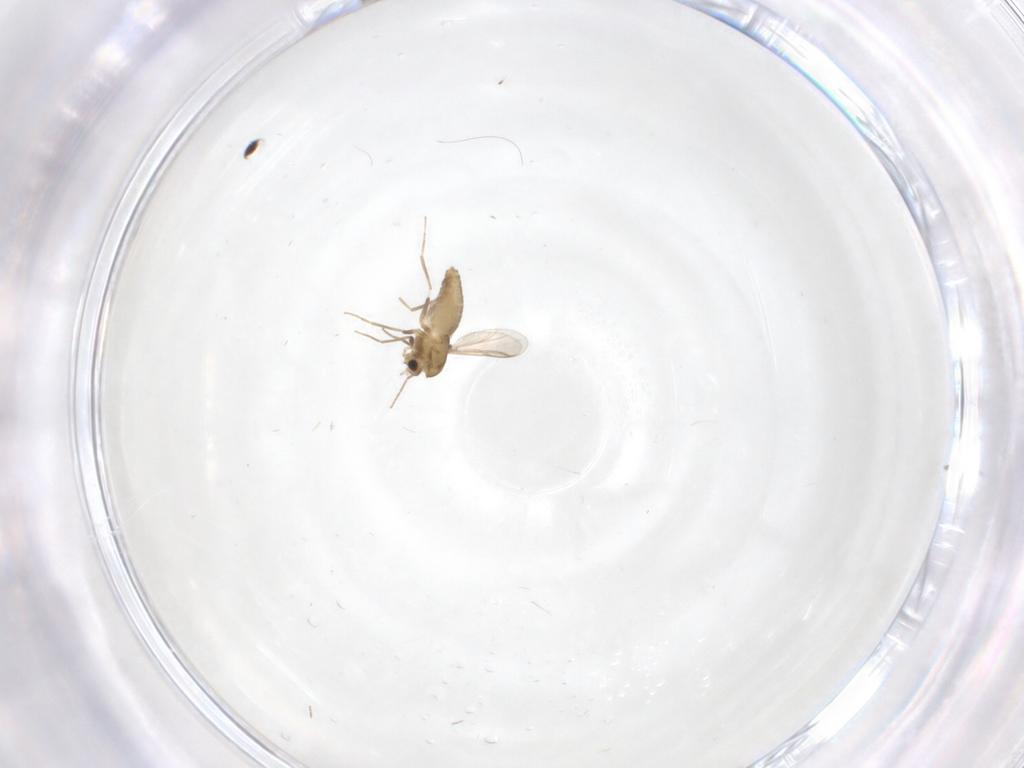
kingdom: Animalia
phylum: Arthropoda
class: Insecta
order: Diptera
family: Chironomidae
